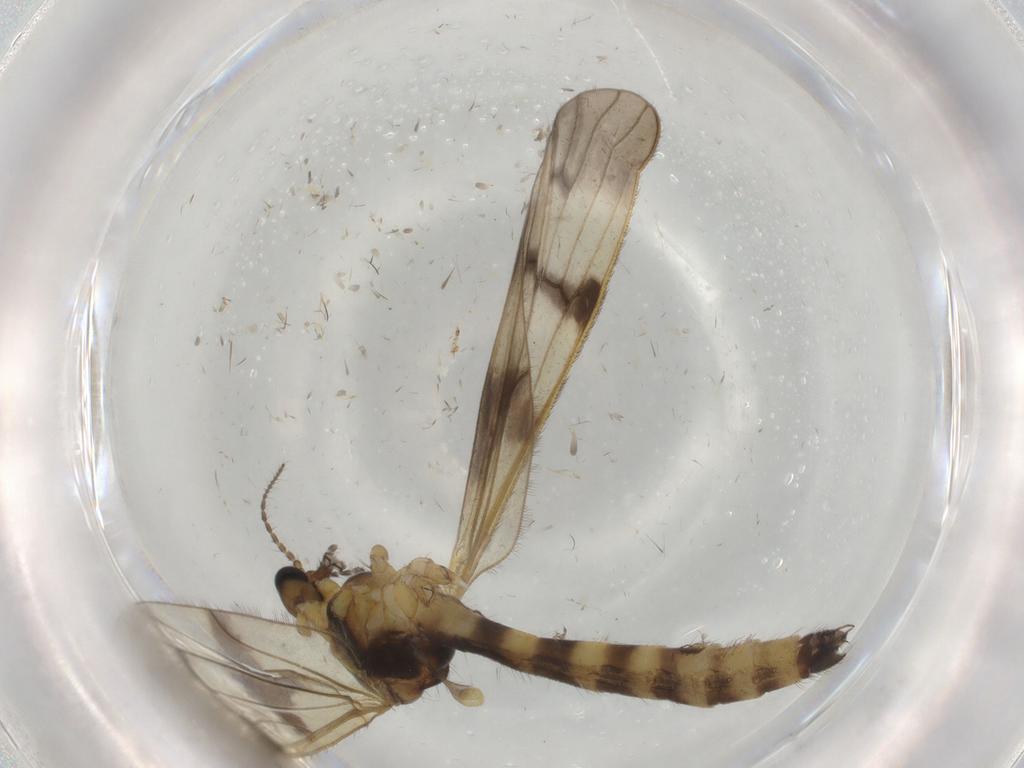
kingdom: Animalia
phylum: Arthropoda
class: Insecta
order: Diptera
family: Limoniidae
